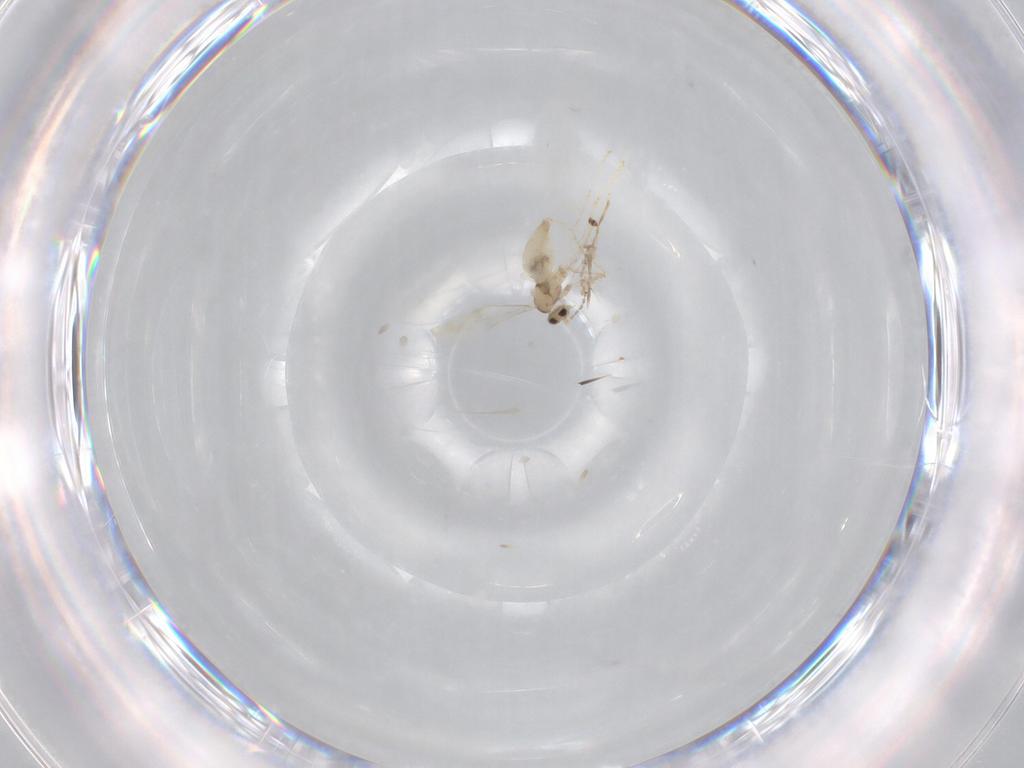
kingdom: Animalia
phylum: Arthropoda
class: Insecta
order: Diptera
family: Cecidomyiidae
